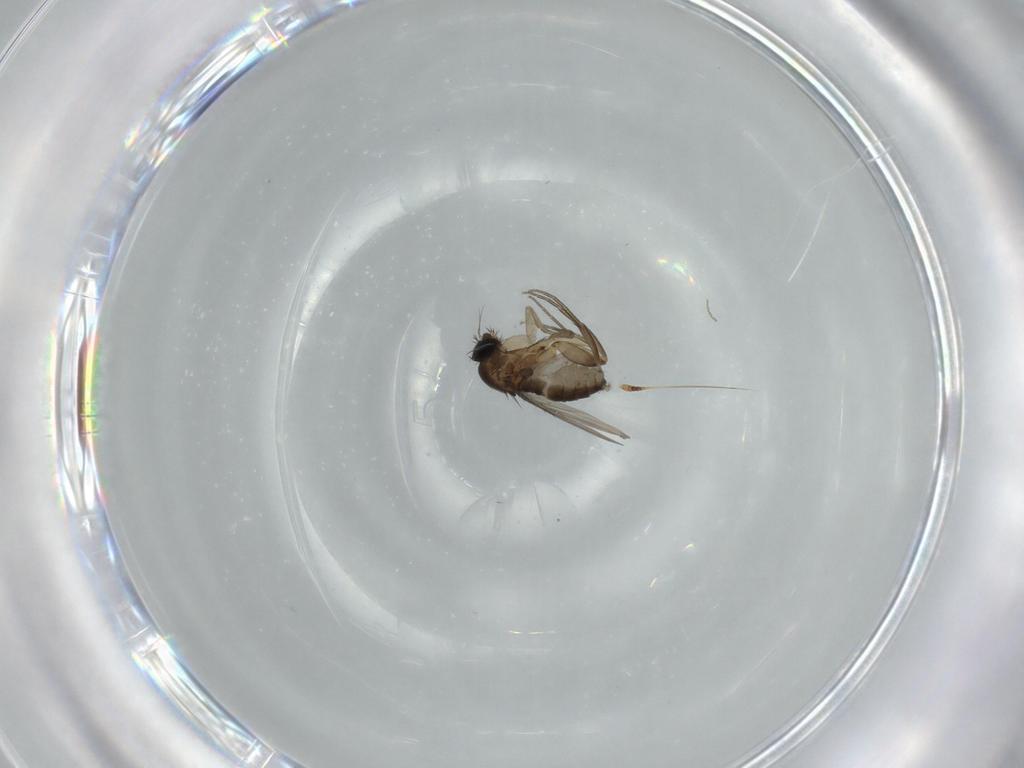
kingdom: Animalia
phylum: Arthropoda
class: Insecta
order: Diptera
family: Phoridae
